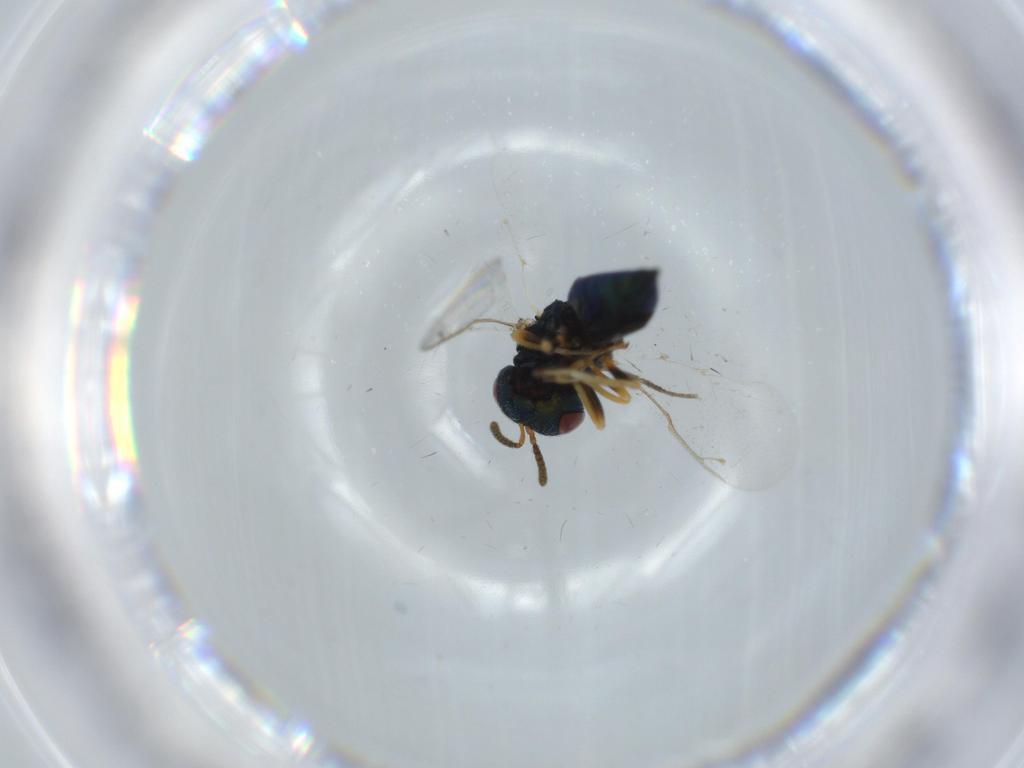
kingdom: Animalia
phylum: Arthropoda
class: Insecta
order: Hymenoptera
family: Pteromalidae
